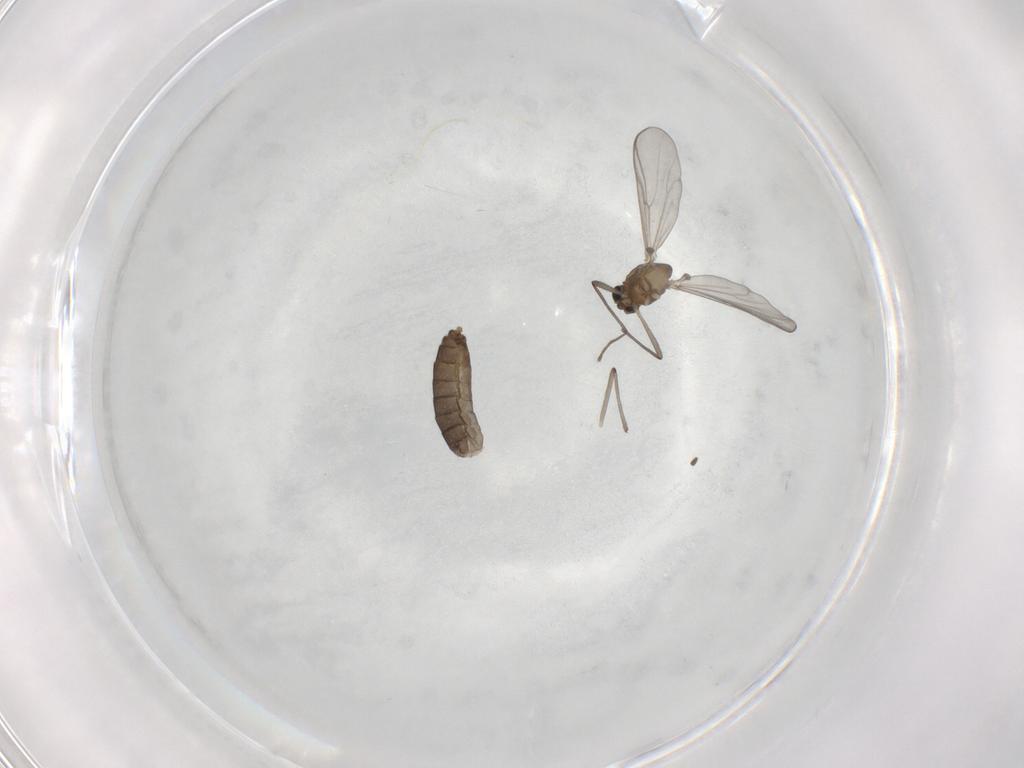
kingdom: Animalia
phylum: Arthropoda
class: Insecta
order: Diptera
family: Chironomidae
